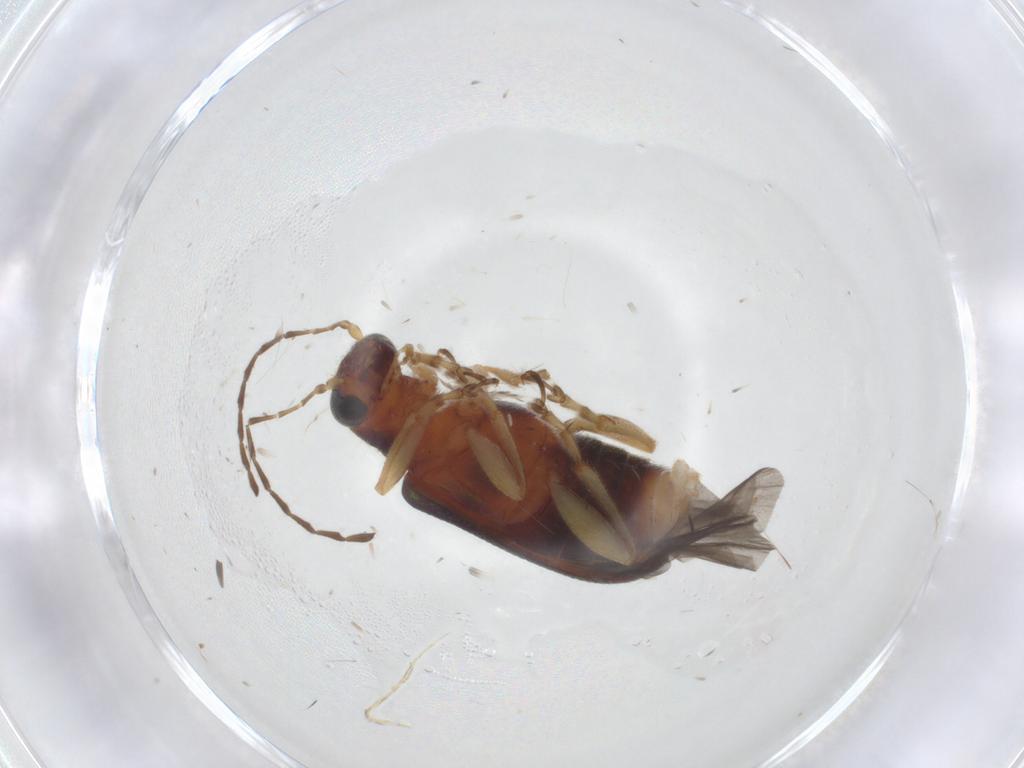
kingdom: Animalia
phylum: Arthropoda
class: Insecta
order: Coleoptera
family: Chrysomelidae
